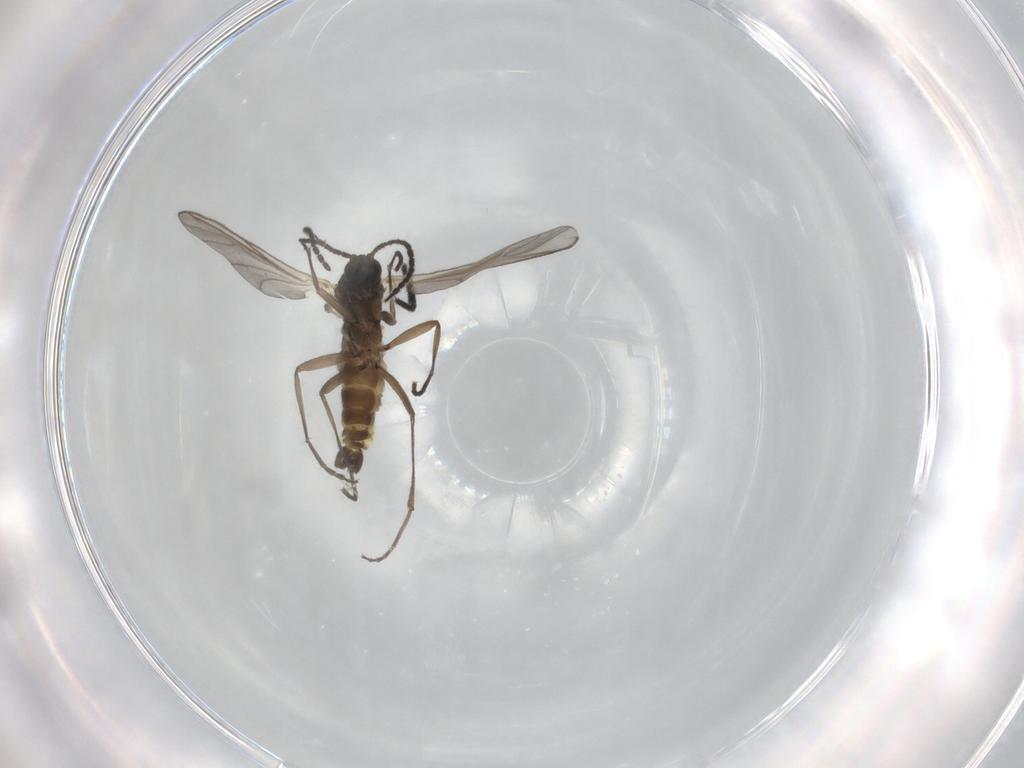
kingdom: Animalia
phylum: Arthropoda
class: Insecta
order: Diptera
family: Sciaridae
